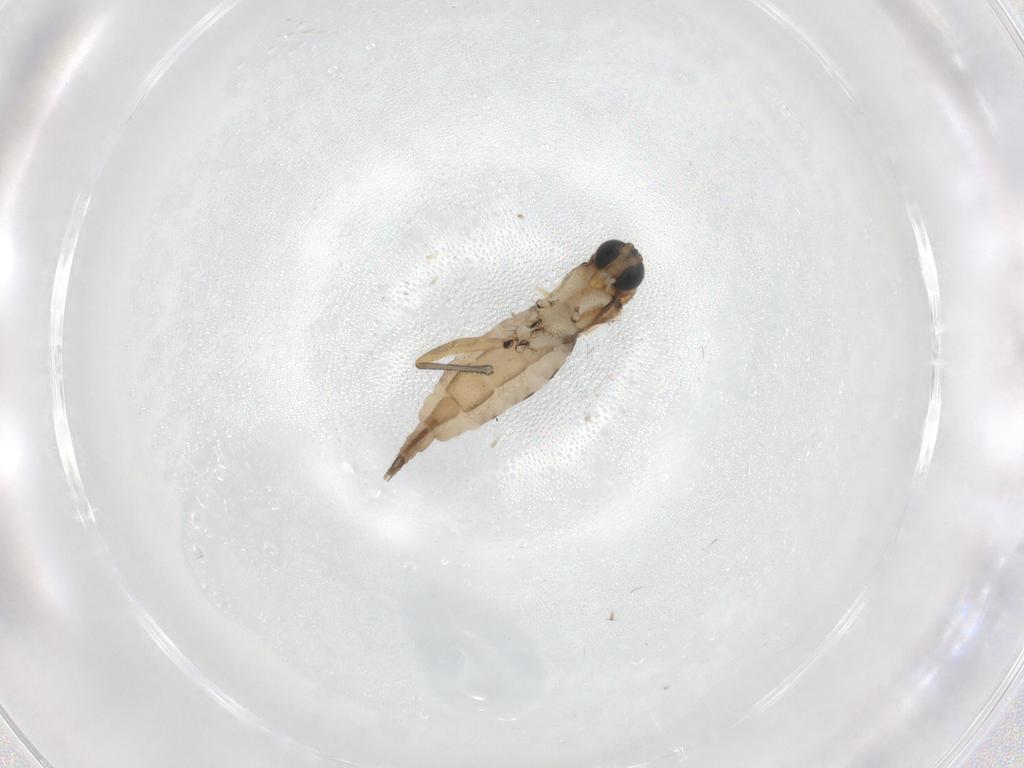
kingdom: Animalia
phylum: Arthropoda
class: Insecta
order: Diptera
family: Sciaridae
